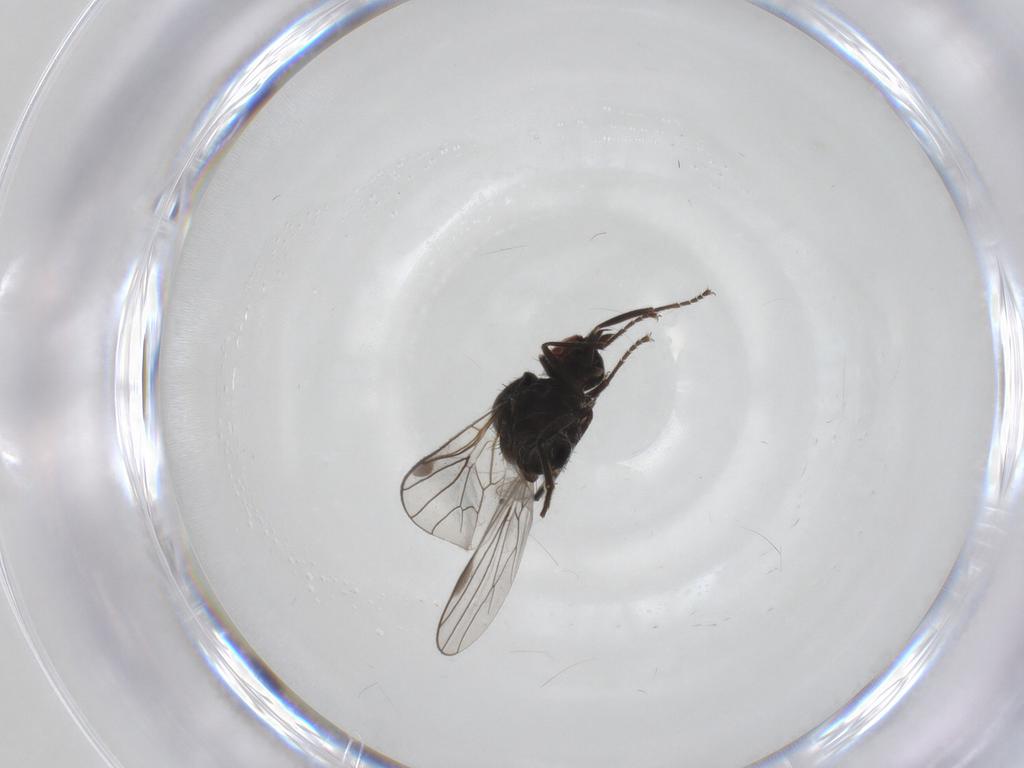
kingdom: Animalia
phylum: Arthropoda
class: Insecta
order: Diptera
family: Hybotidae
